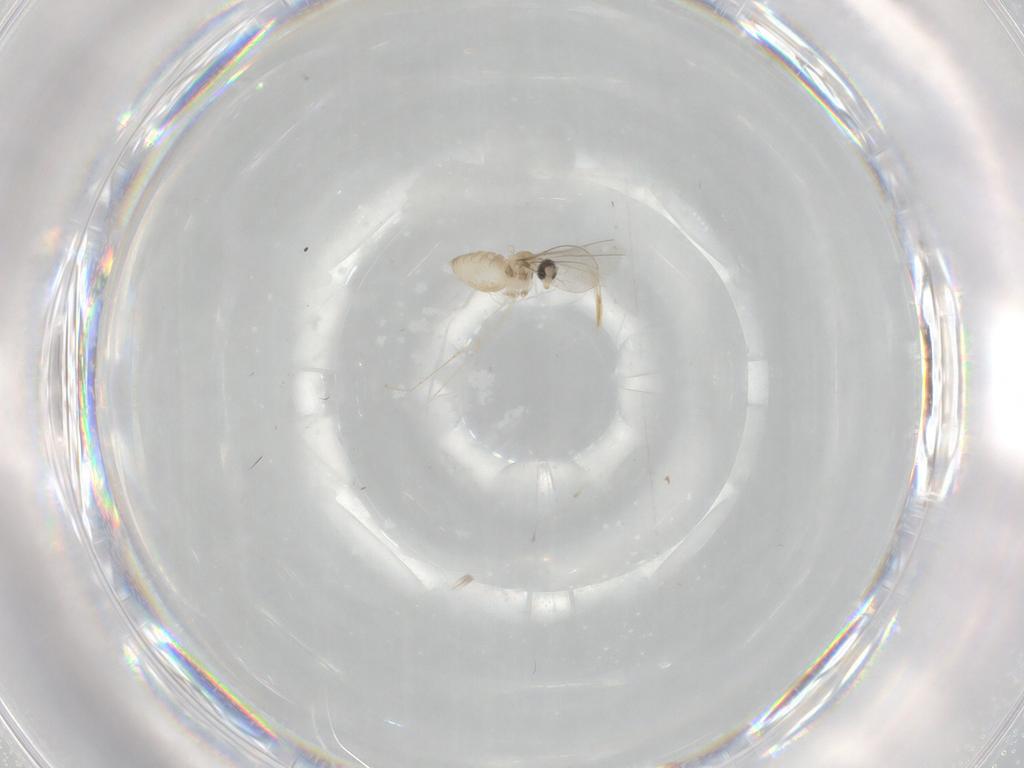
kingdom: Animalia
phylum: Arthropoda
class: Insecta
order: Diptera
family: Cecidomyiidae
